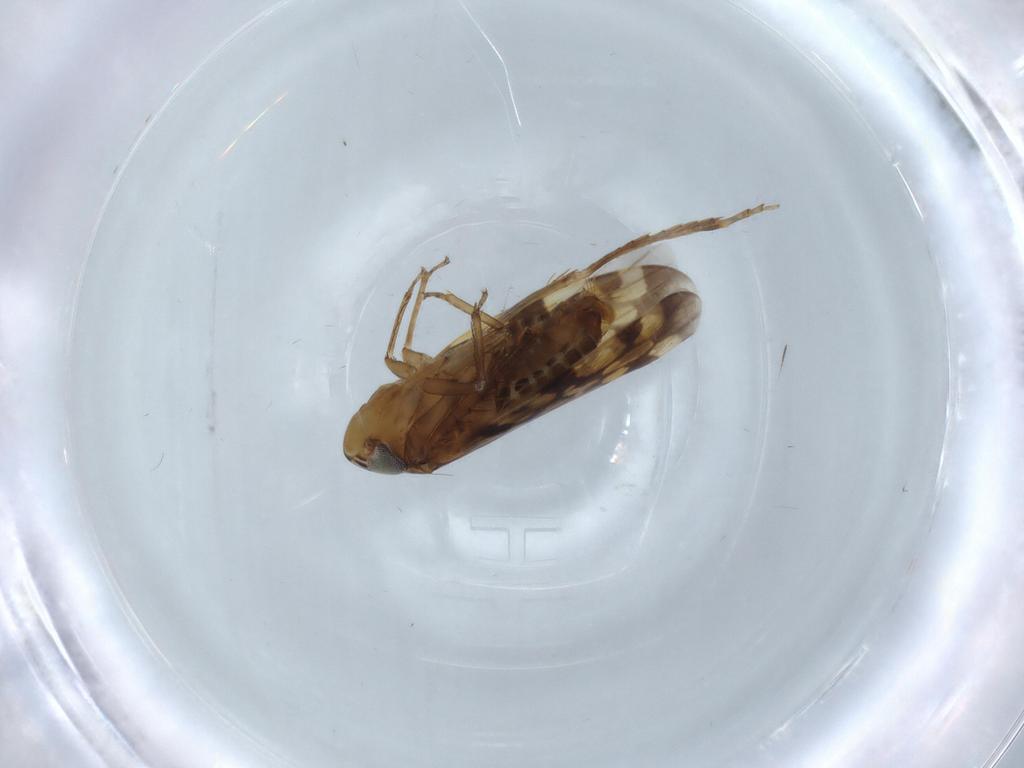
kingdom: Animalia
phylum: Arthropoda
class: Insecta
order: Hemiptera
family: Cicadellidae
